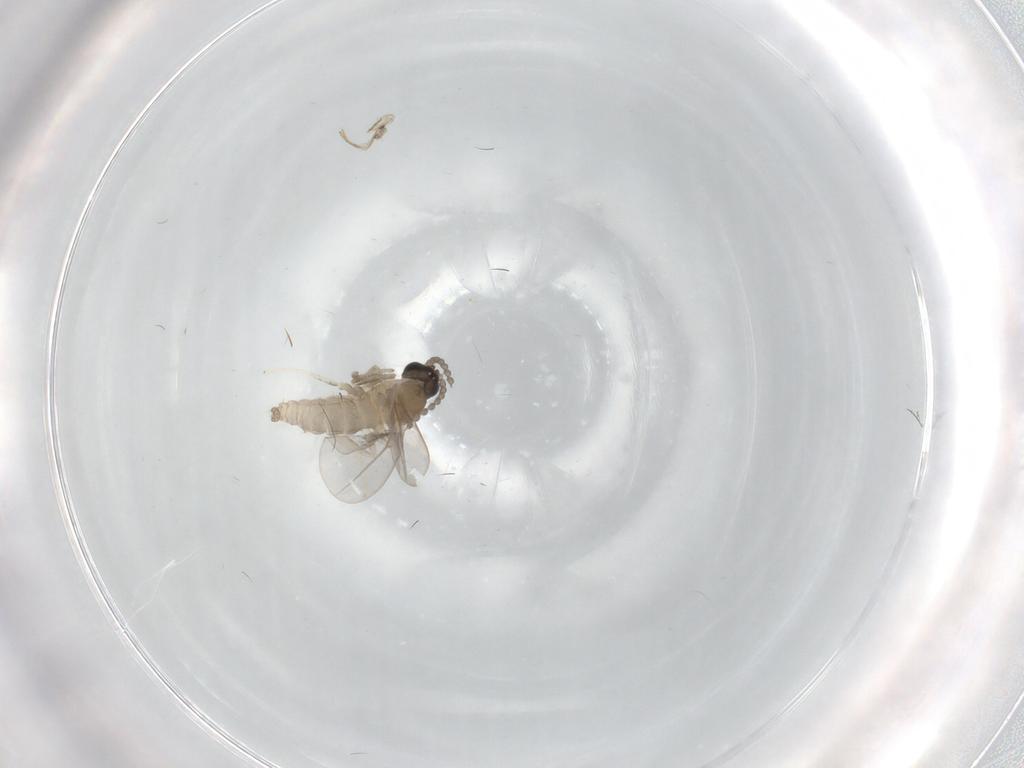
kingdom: Animalia
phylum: Arthropoda
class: Insecta
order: Diptera
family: Cecidomyiidae
